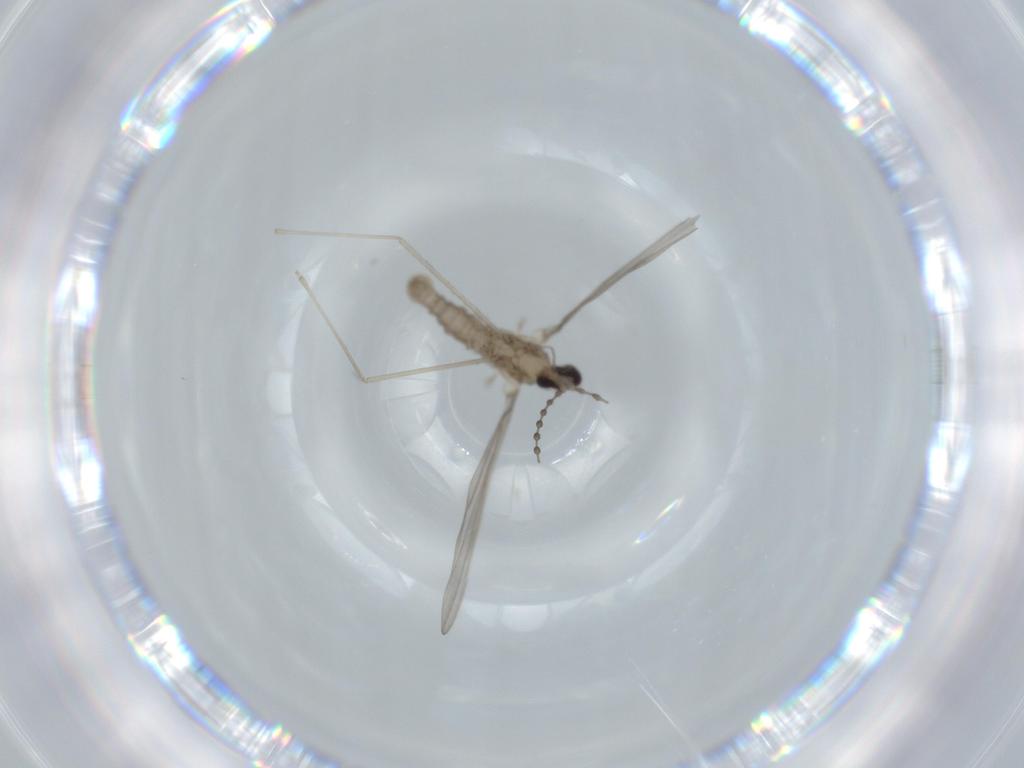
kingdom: Animalia
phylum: Arthropoda
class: Insecta
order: Diptera
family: Cecidomyiidae
